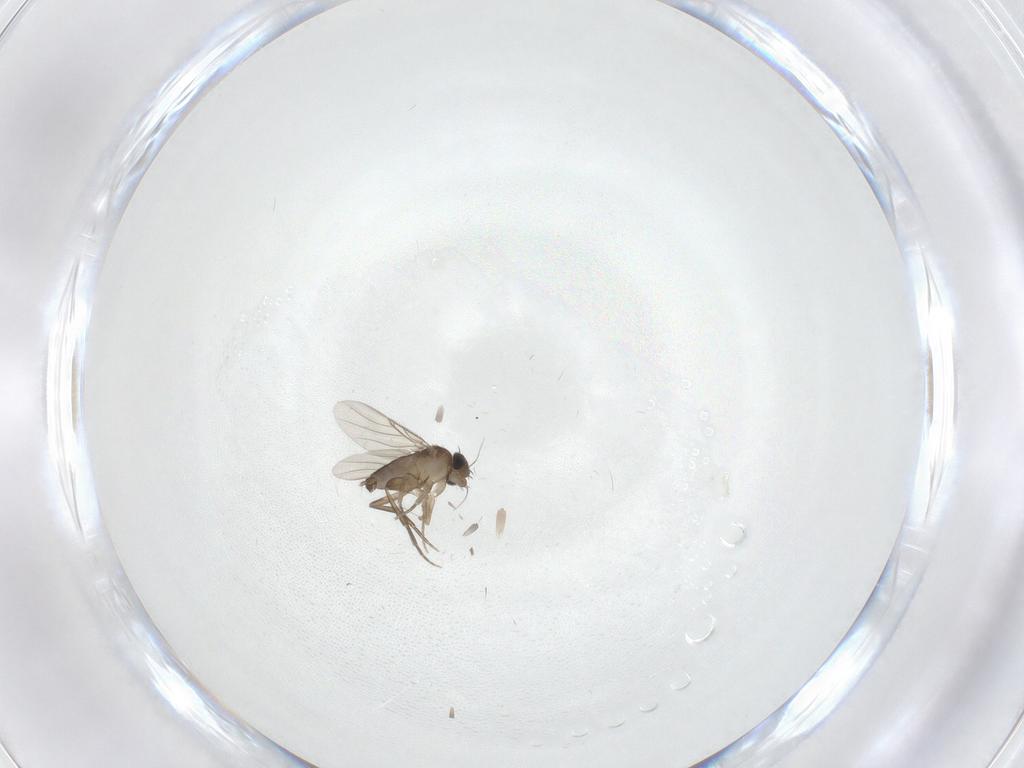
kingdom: Animalia
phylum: Arthropoda
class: Insecta
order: Diptera
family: Phoridae
